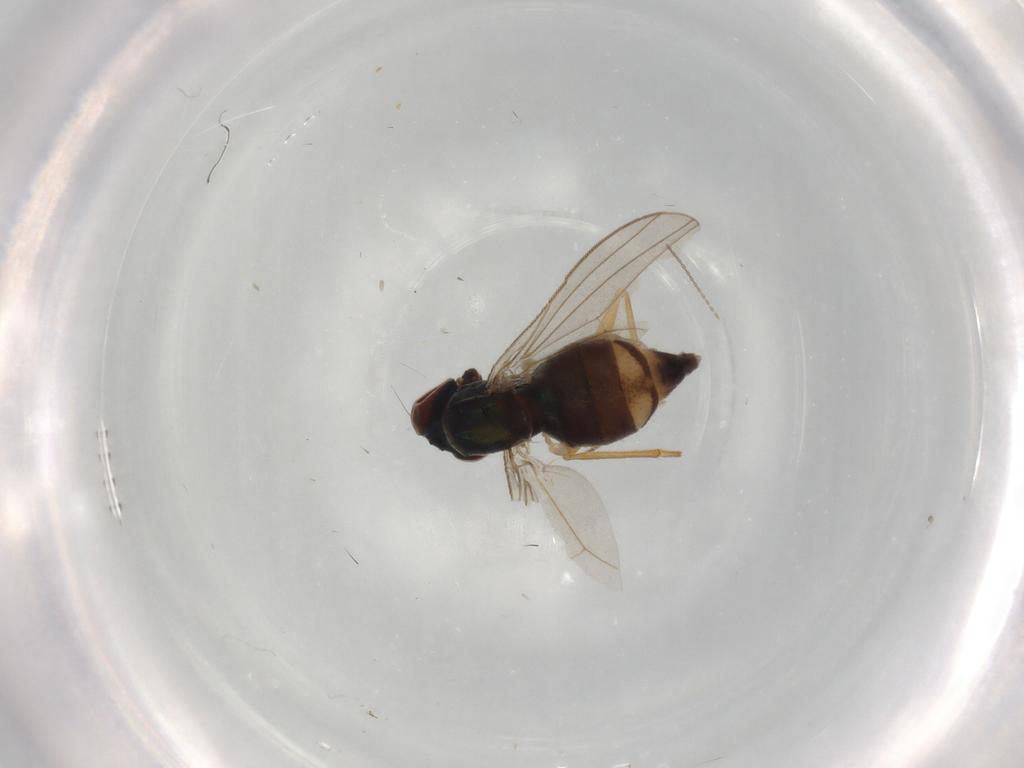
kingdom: Animalia
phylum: Arthropoda
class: Insecta
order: Diptera
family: Dolichopodidae
